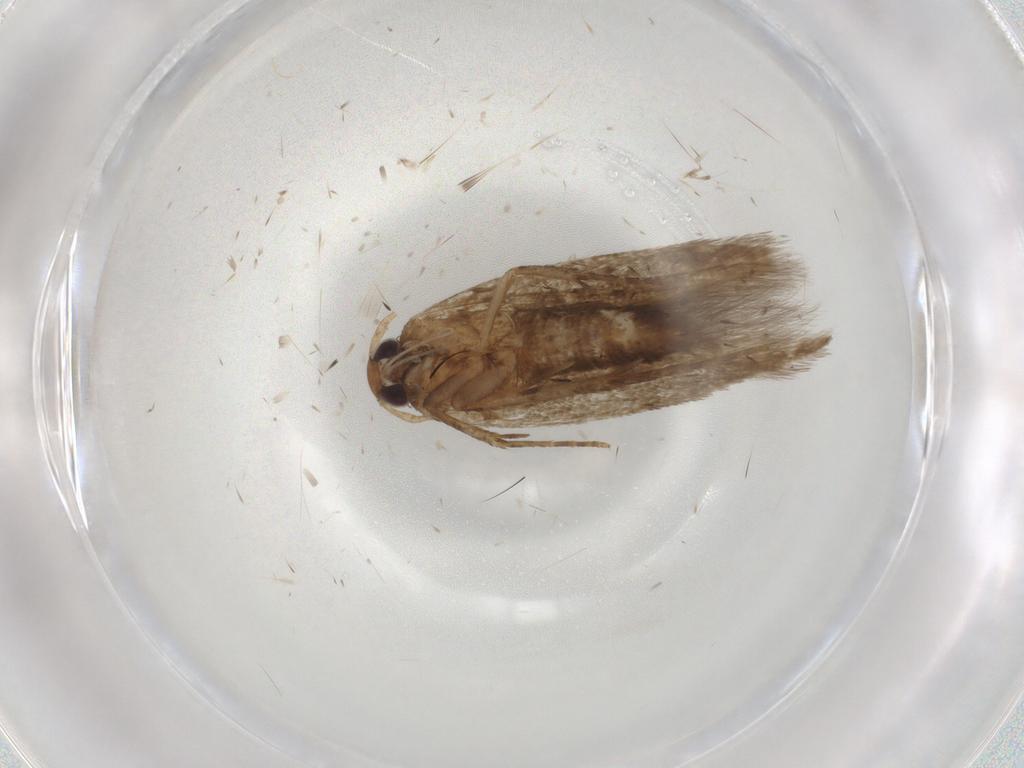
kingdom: Animalia
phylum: Arthropoda
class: Insecta
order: Lepidoptera
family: Cosmopterigidae
